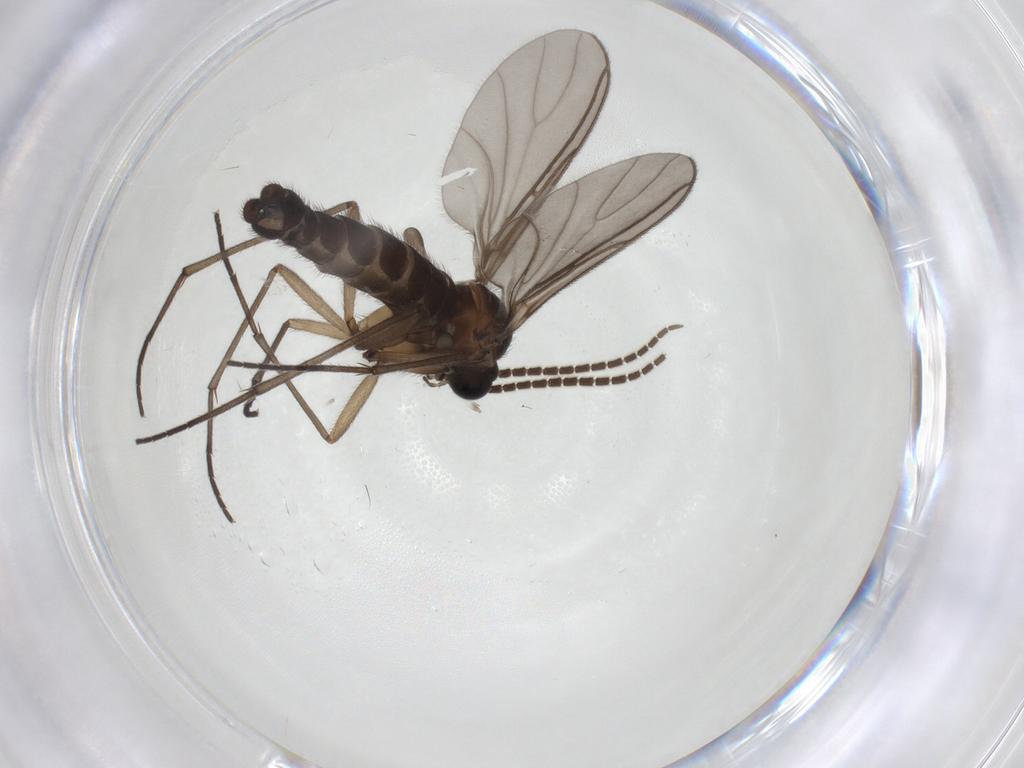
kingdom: Animalia
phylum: Arthropoda
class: Insecta
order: Diptera
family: Sciaridae
